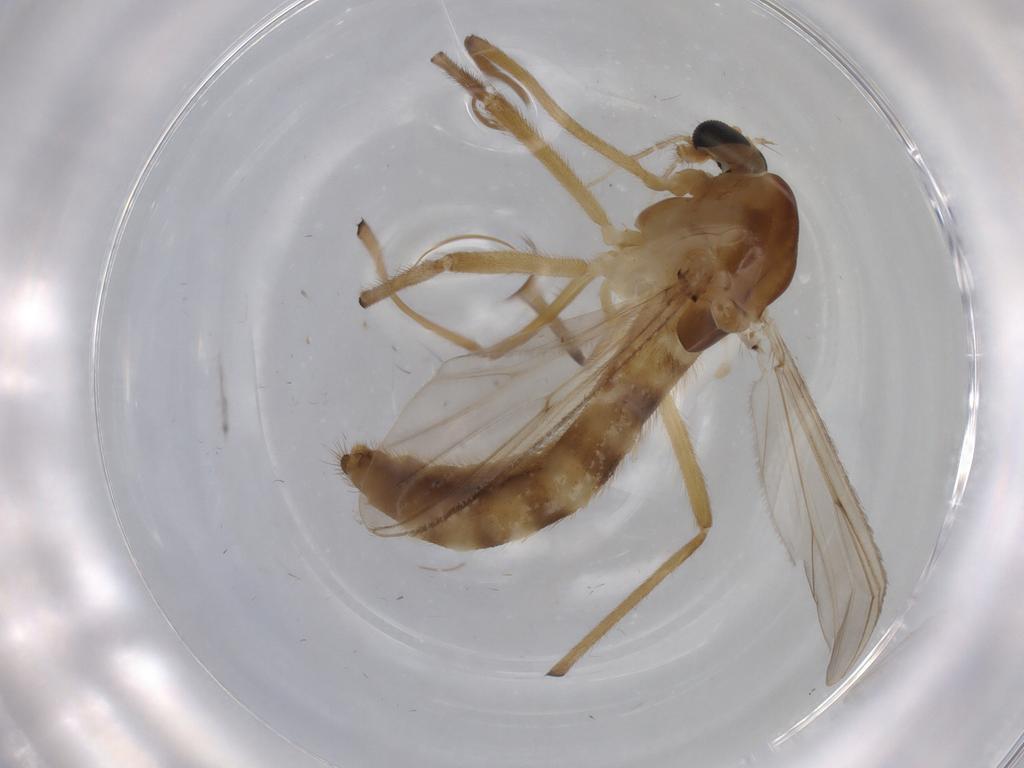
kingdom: Animalia
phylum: Arthropoda
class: Insecta
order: Diptera
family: Dolichopodidae
